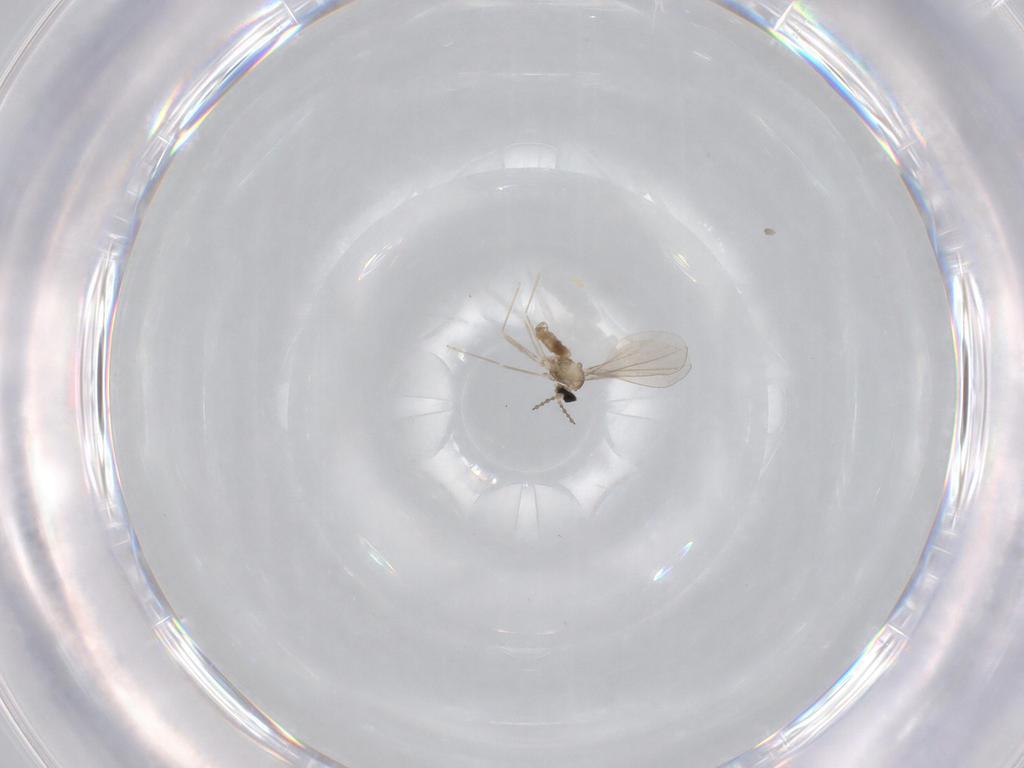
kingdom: Animalia
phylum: Arthropoda
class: Insecta
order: Diptera
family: Cecidomyiidae
